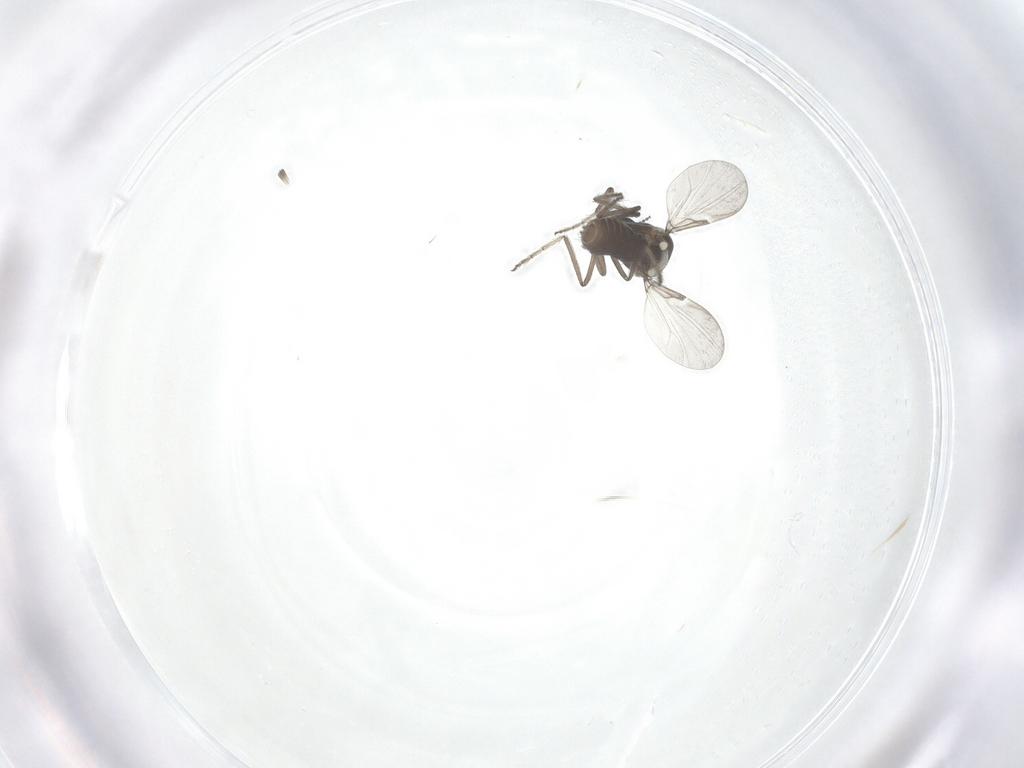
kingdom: Animalia
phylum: Arthropoda
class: Insecta
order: Diptera
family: Ceratopogonidae
